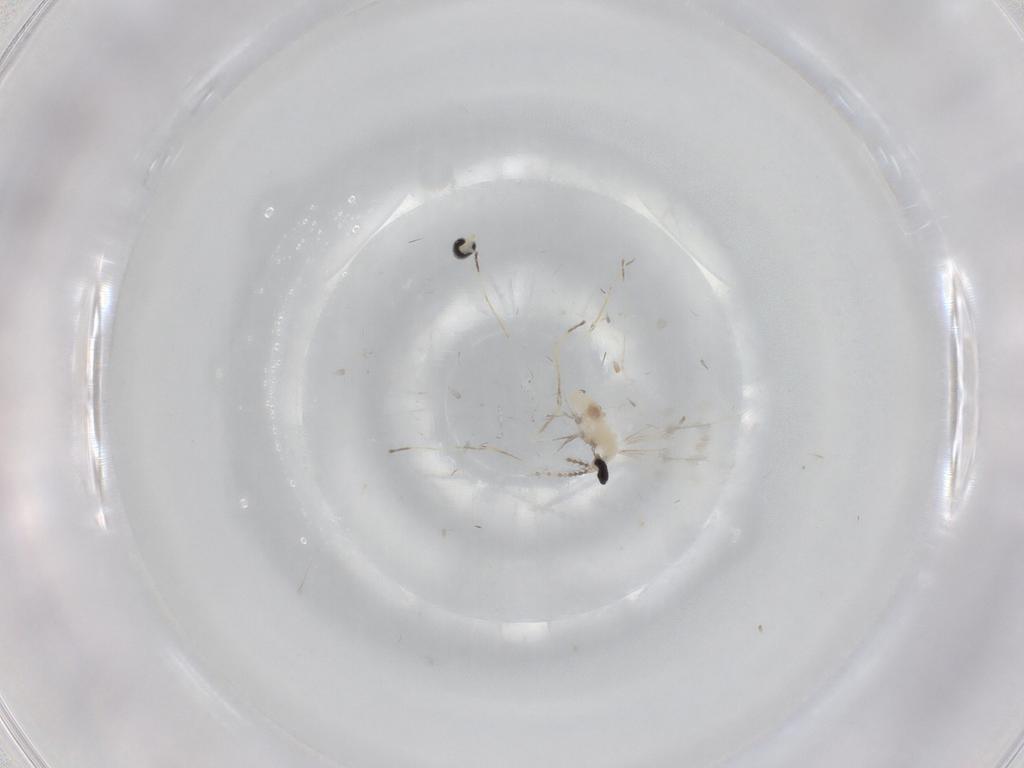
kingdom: Animalia
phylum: Arthropoda
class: Insecta
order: Diptera
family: Cecidomyiidae
